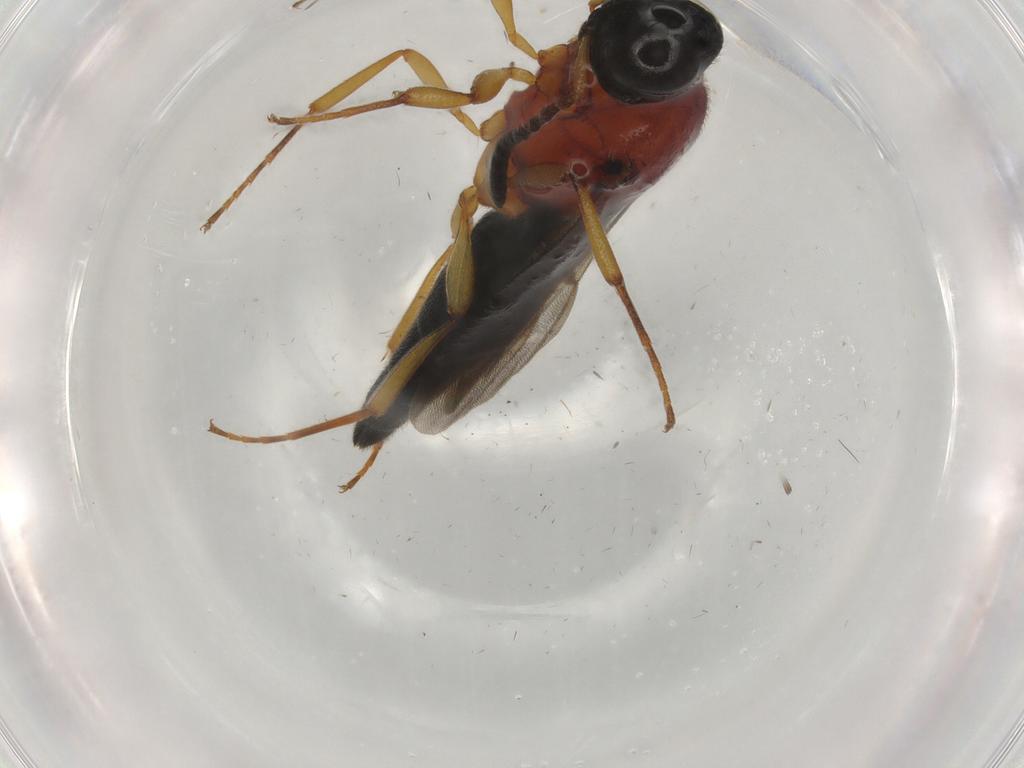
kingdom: Animalia
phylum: Arthropoda
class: Insecta
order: Hymenoptera
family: Scelionidae
